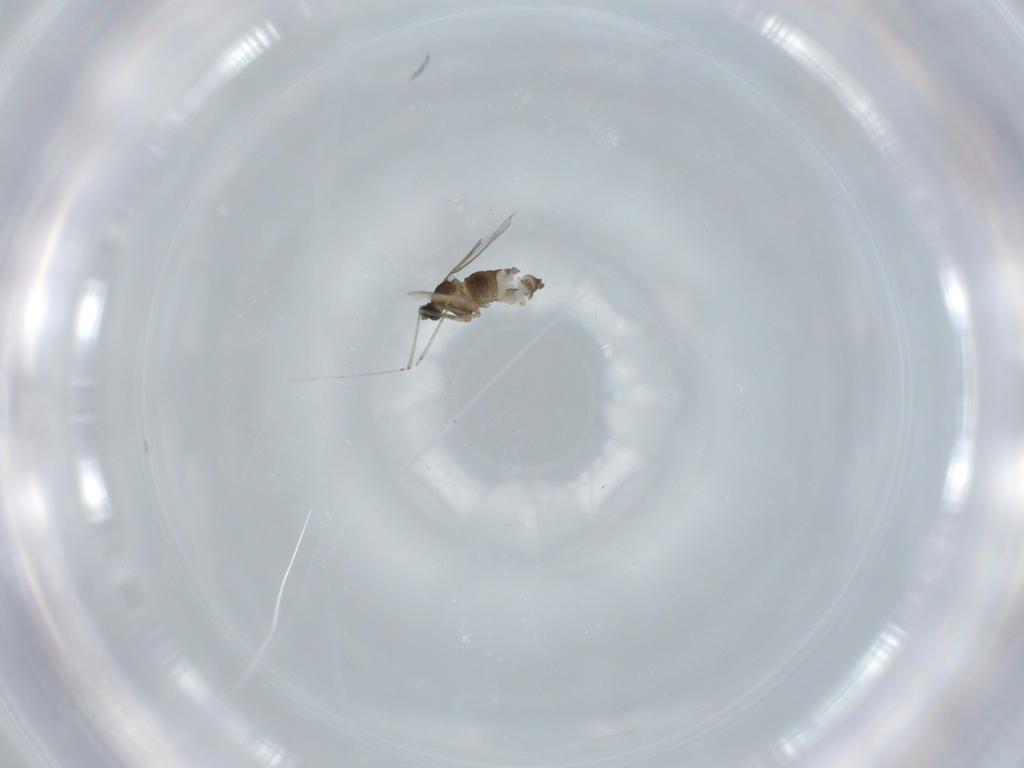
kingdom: Animalia
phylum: Arthropoda
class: Insecta
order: Diptera
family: Cecidomyiidae
